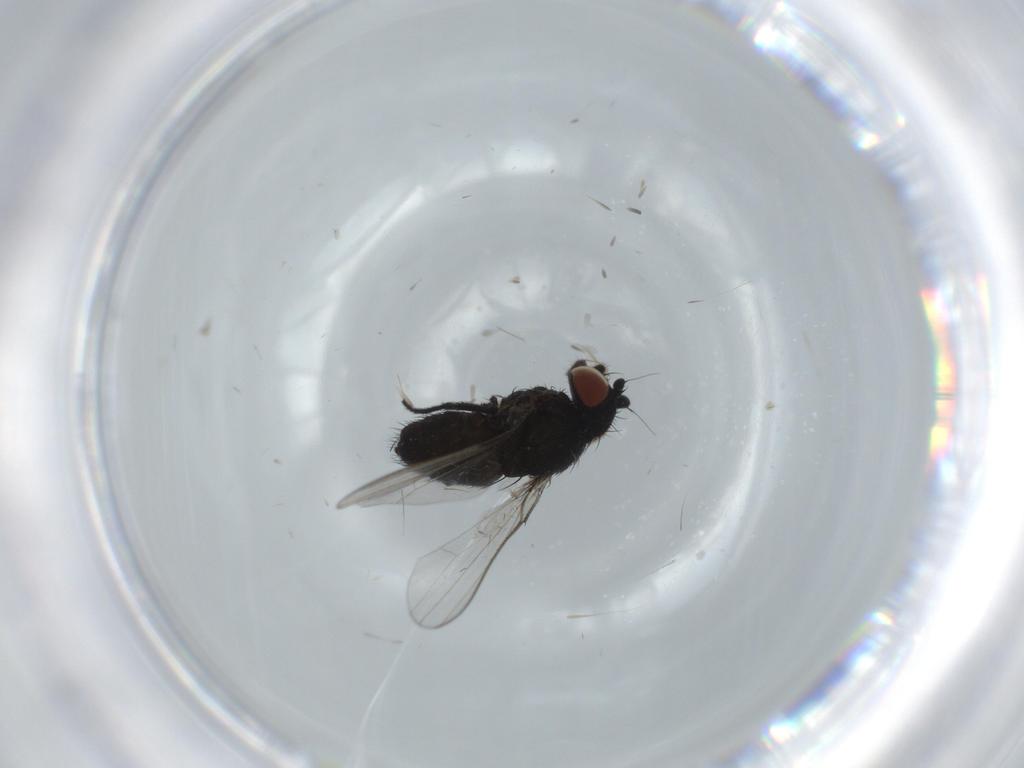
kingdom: Animalia
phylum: Arthropoda
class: Insecta
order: Diptera
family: Milichiidae
